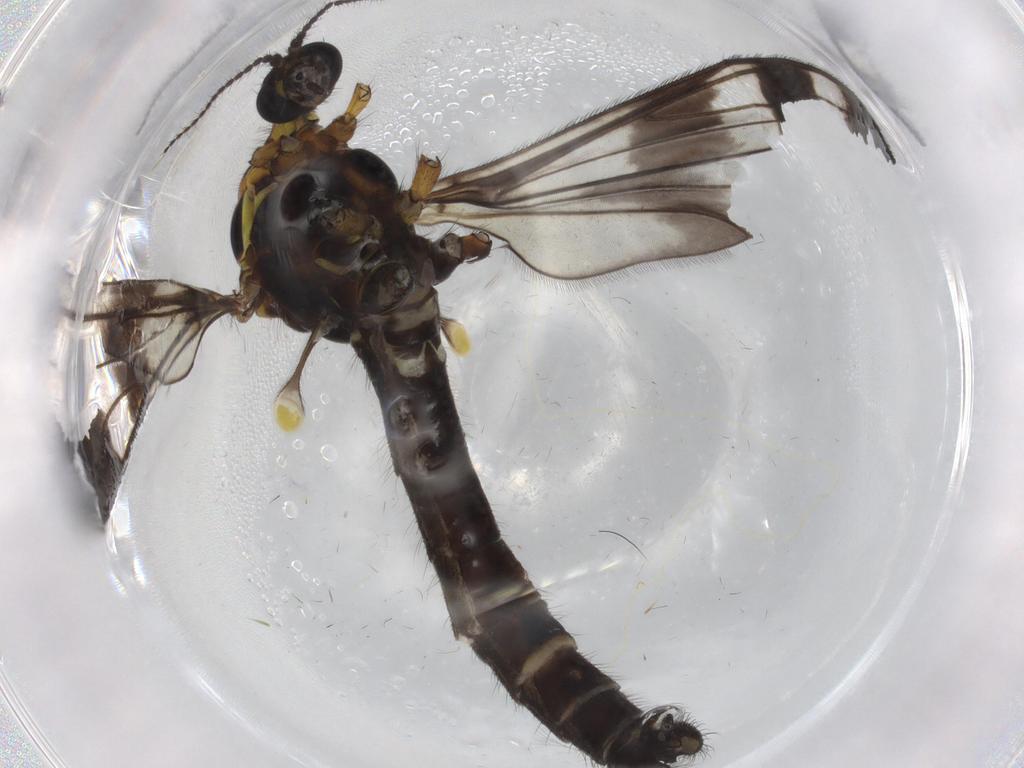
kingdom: Animalia
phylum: Arthropoda
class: Insecta
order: Diptera
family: Limoniidae
